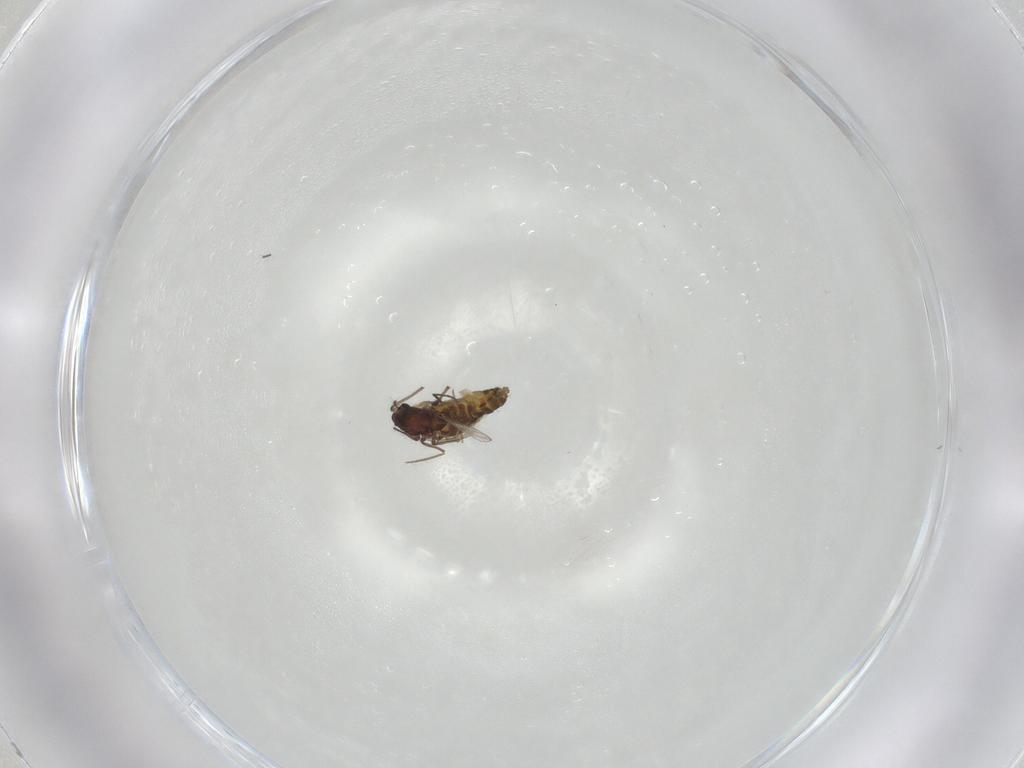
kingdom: Animalia
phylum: Arthropoda
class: Insecta
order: Diptera
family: Chironomidae
